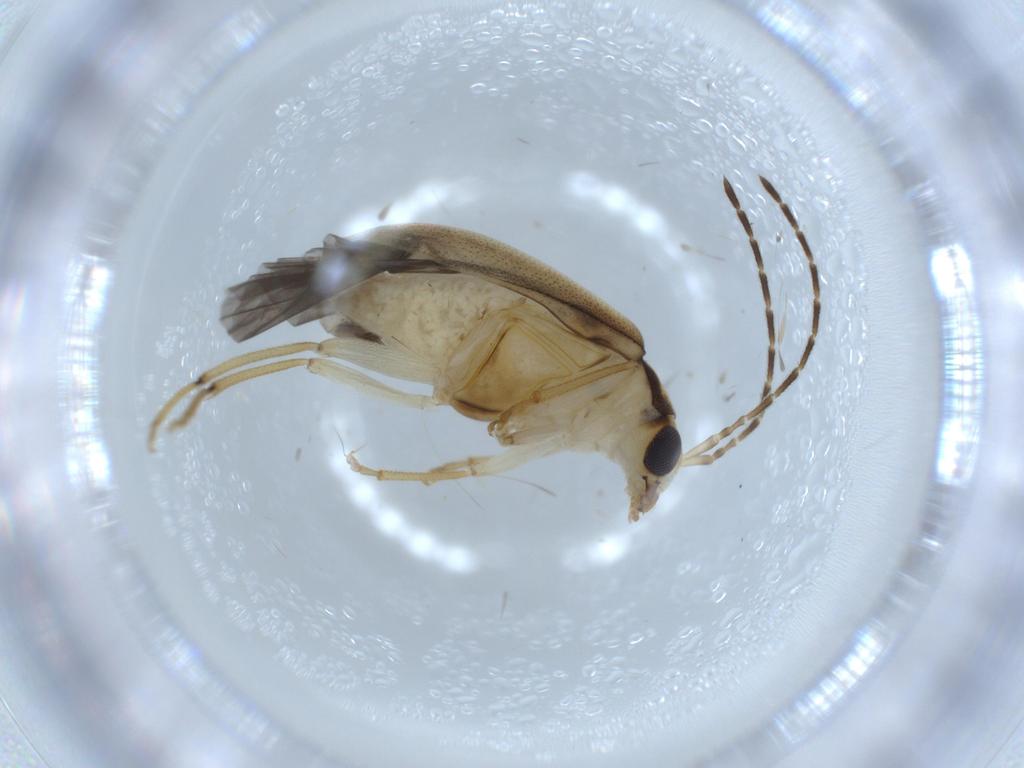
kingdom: Animalia
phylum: Arthropoda
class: Insecta
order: Coleoptera
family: Chrysomelidae
